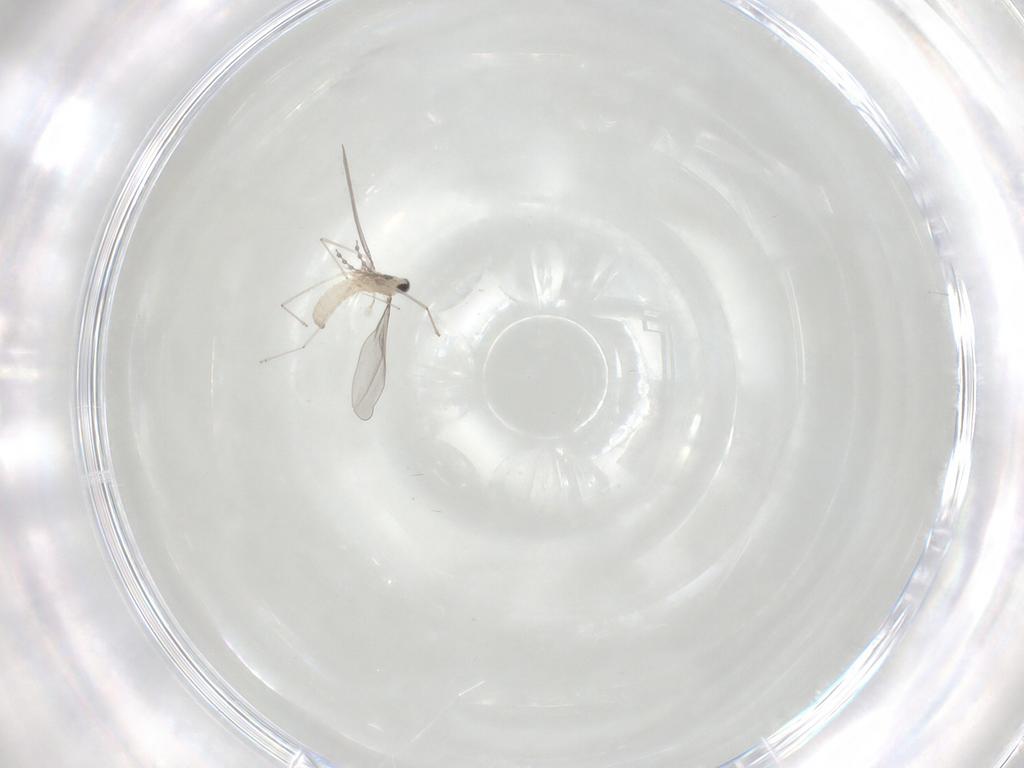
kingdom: Animalia
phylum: Arthropoda
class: Insecta
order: Diptera
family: Cecidomyiidae
